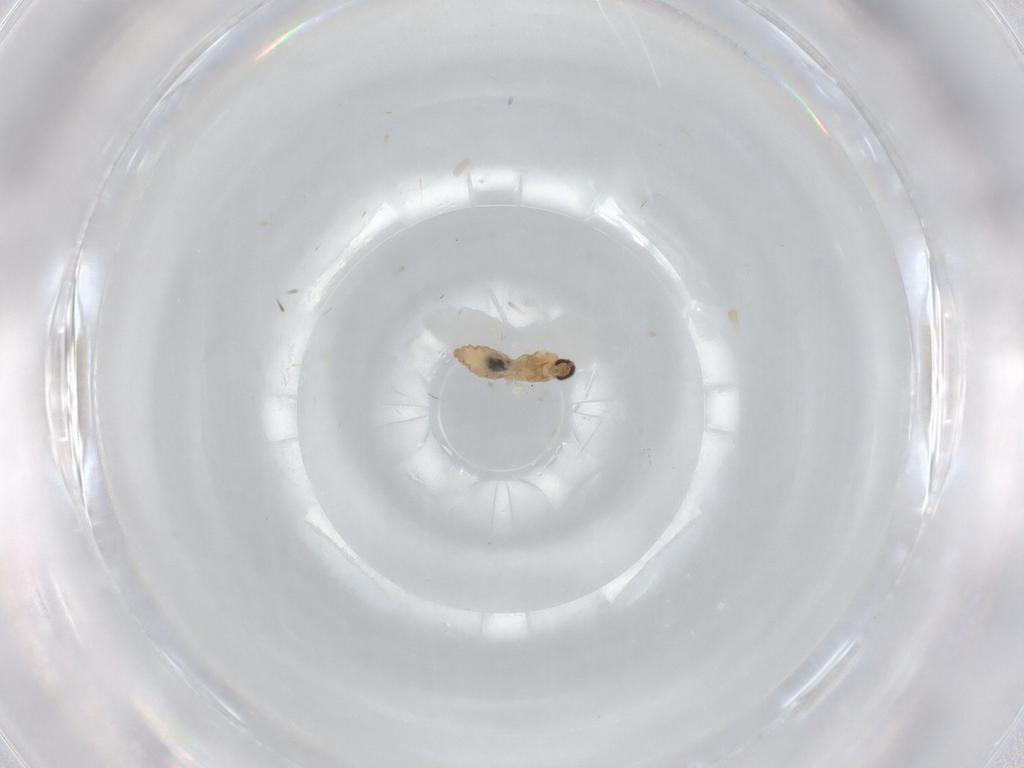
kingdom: Animalia
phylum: Arthropoda
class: Insecta
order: Diptera
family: Cecidomyiidae
